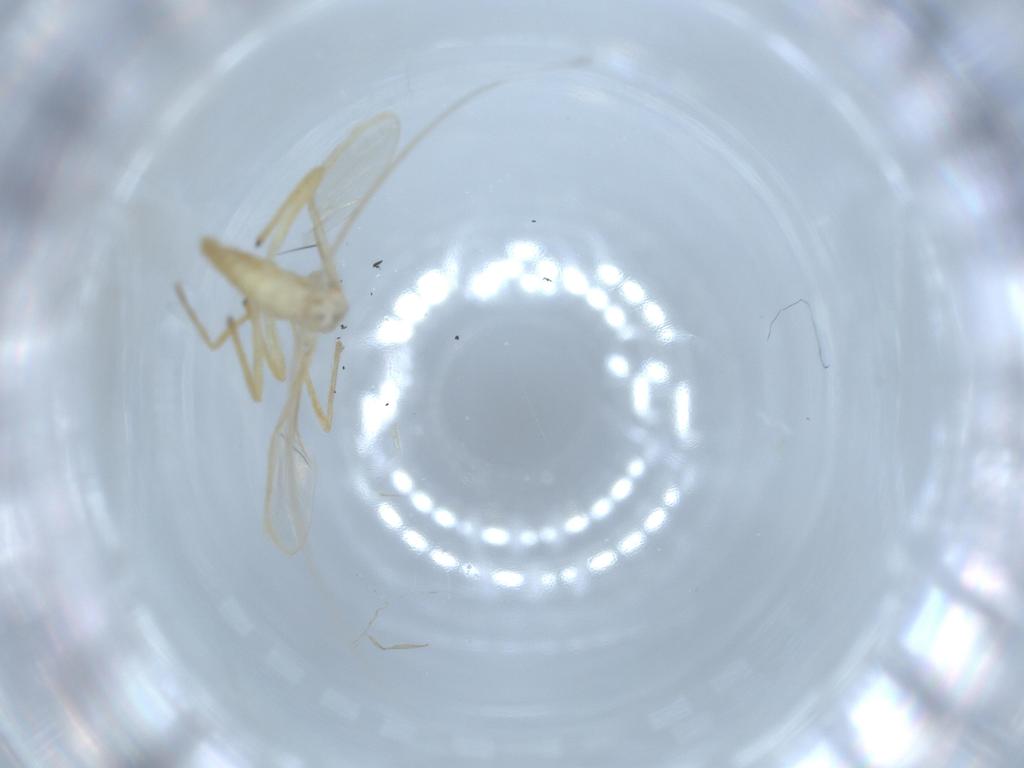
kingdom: Animalia
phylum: Arthropoda
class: Insecta
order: Diptera
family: Chironomidae
